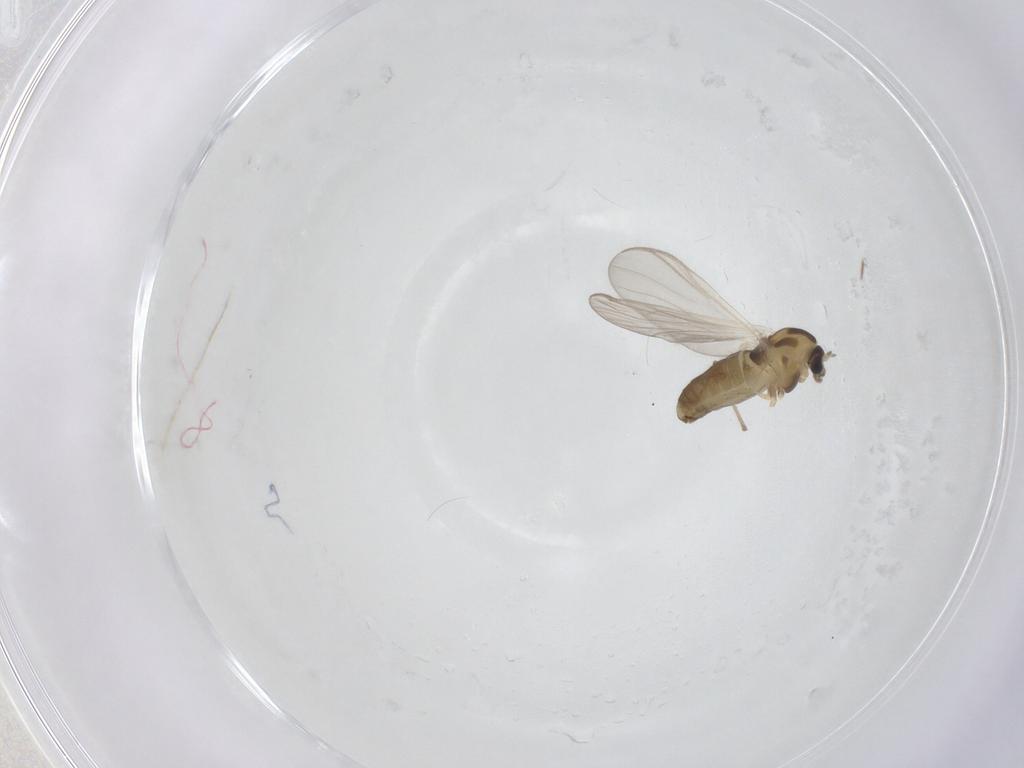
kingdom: Animalia
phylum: Arthropoda
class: Insecta
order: Diptera
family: Chironomidae
